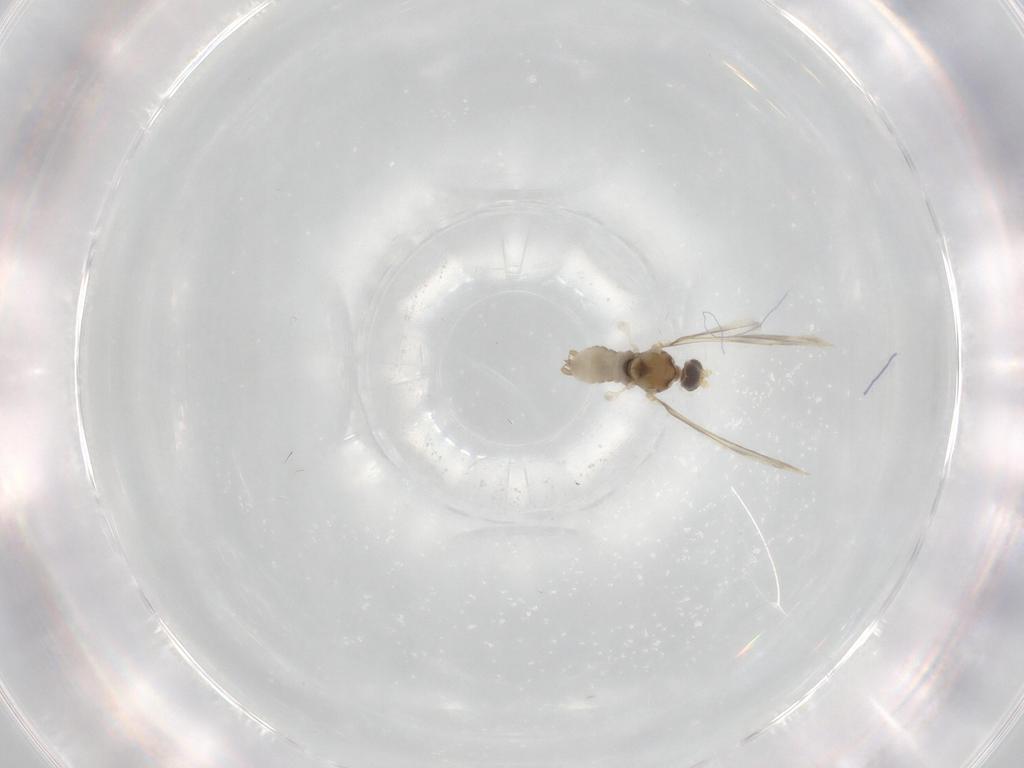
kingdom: Animalia
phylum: Arthropoda
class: Insecta
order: Diptera
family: Cecidomyiidae
